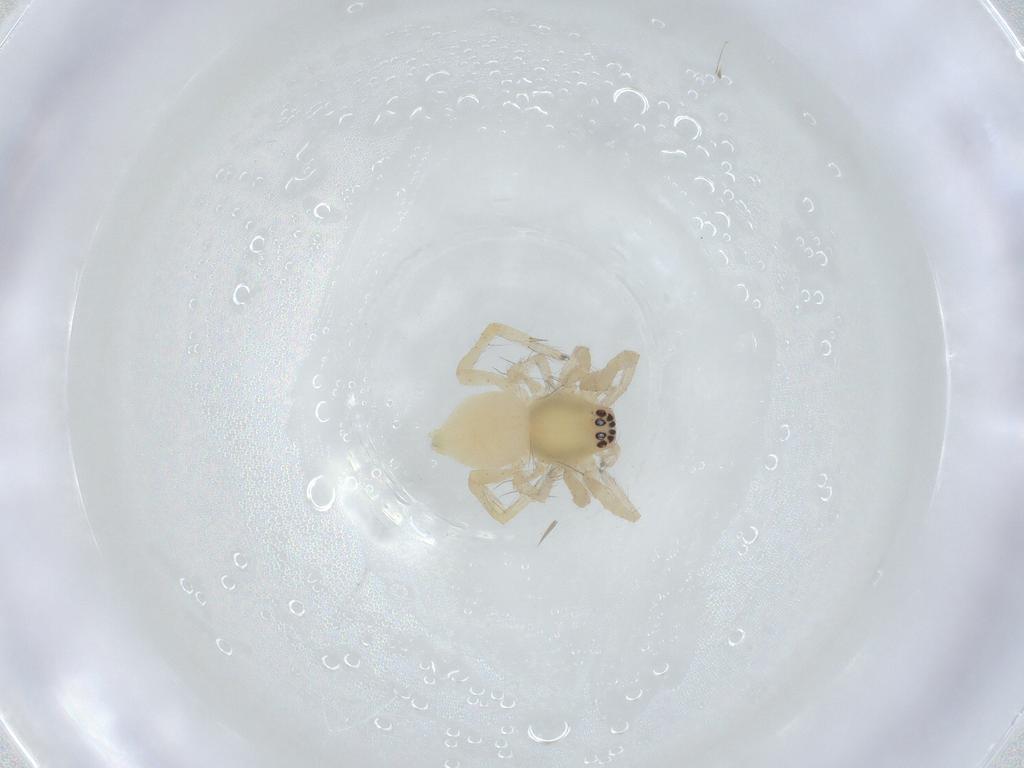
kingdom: Animalia
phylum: Arthropoda
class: Arachnida
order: Araneae
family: Anyphaenidae
